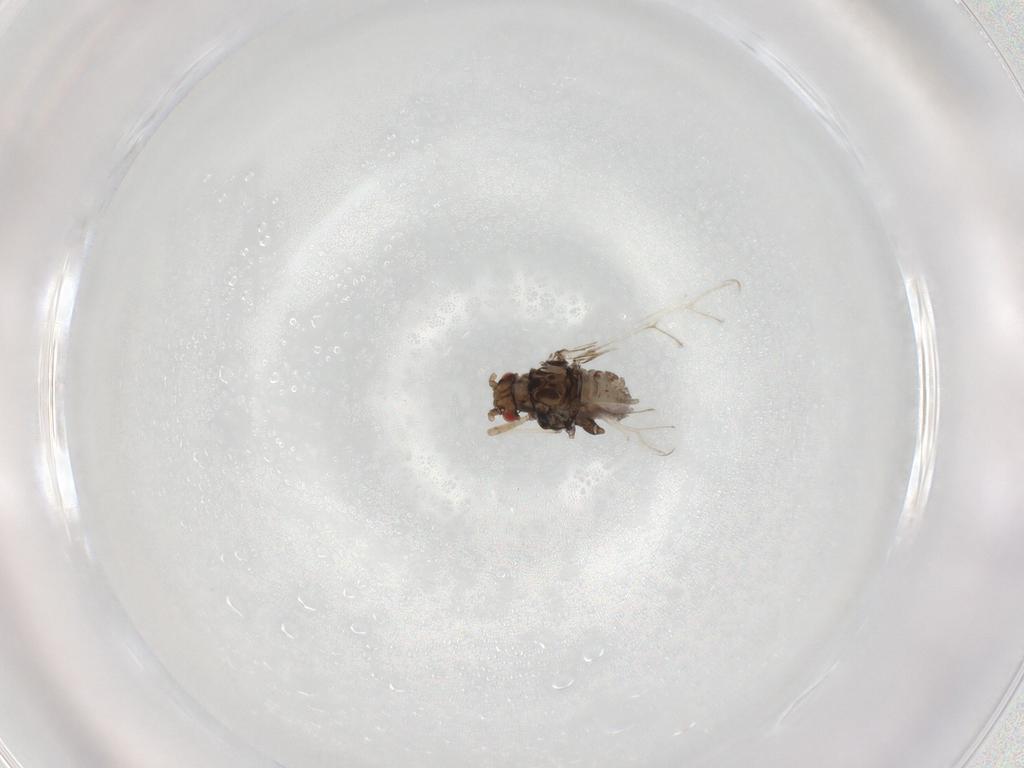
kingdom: Animalia
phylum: Arthropoda
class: Insecta
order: Hemiptera
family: Aphididae
